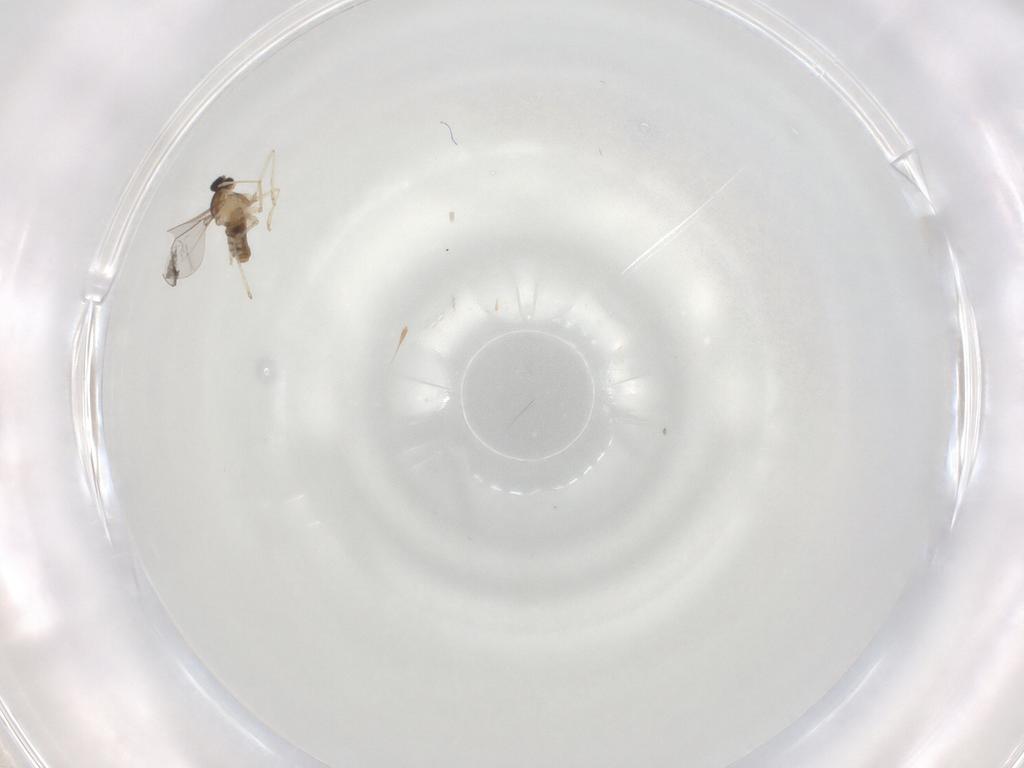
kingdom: Animalia
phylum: Arthropoda
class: Insecta
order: Diptera
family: Cecidomyiidae
